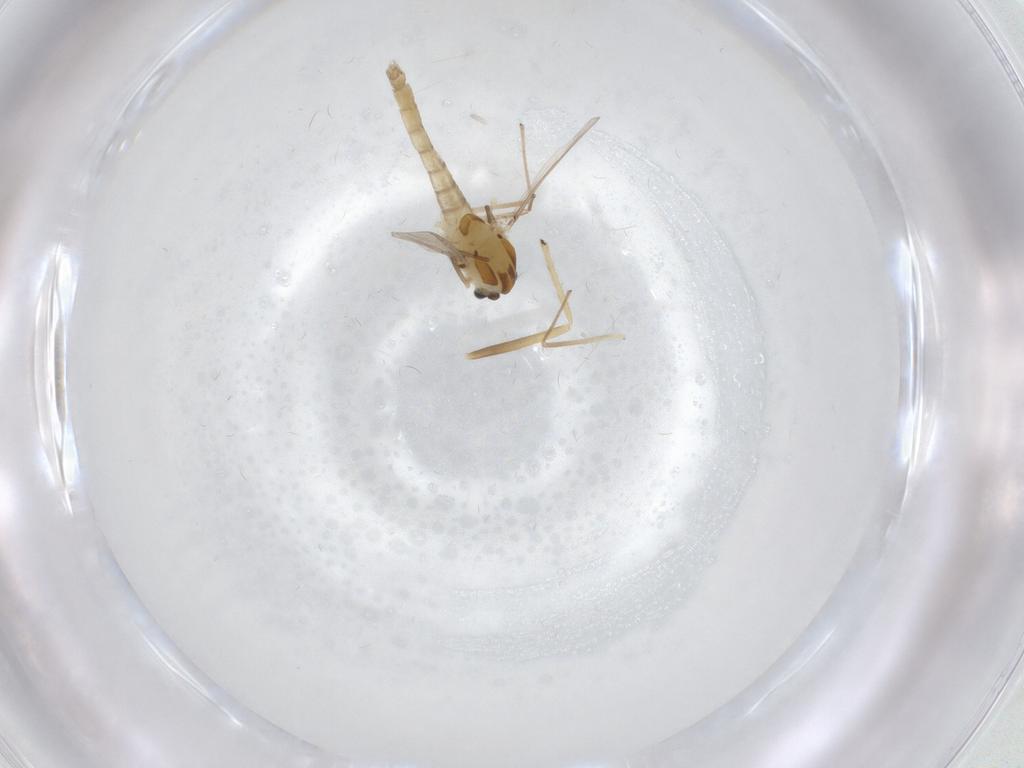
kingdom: Animalia
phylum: Arthropoda
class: Insecta
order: Diptera
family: Chironomidae
